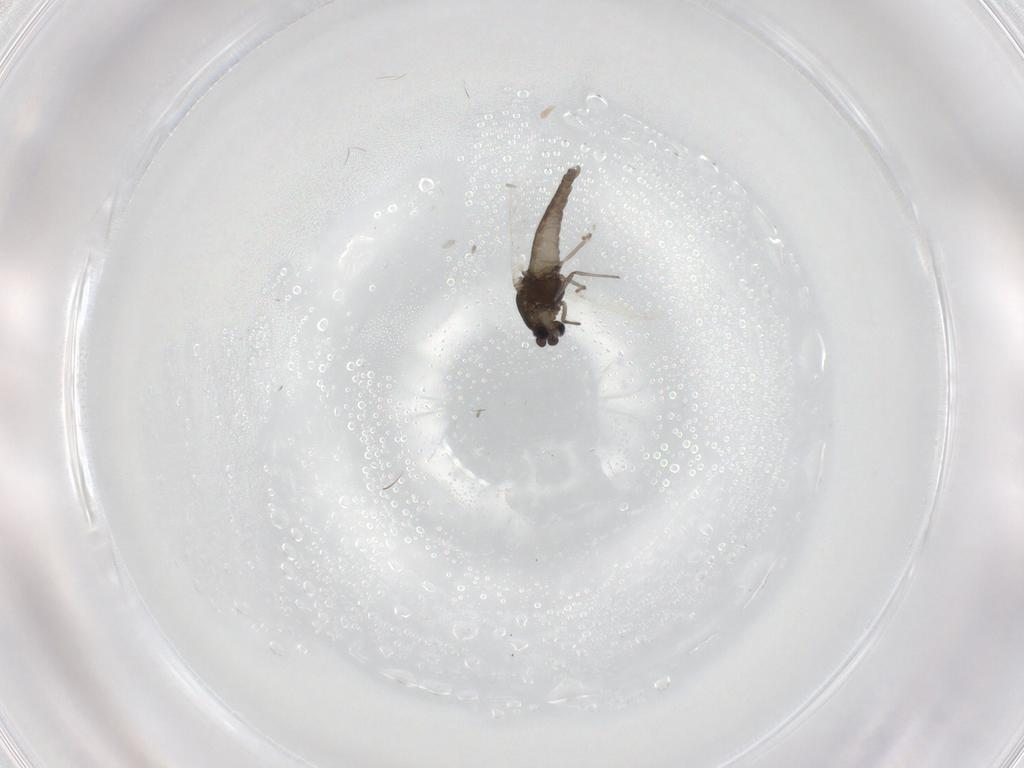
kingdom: Animalia
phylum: Arthropoda
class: Insecta
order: Diptera
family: Chironomidae
